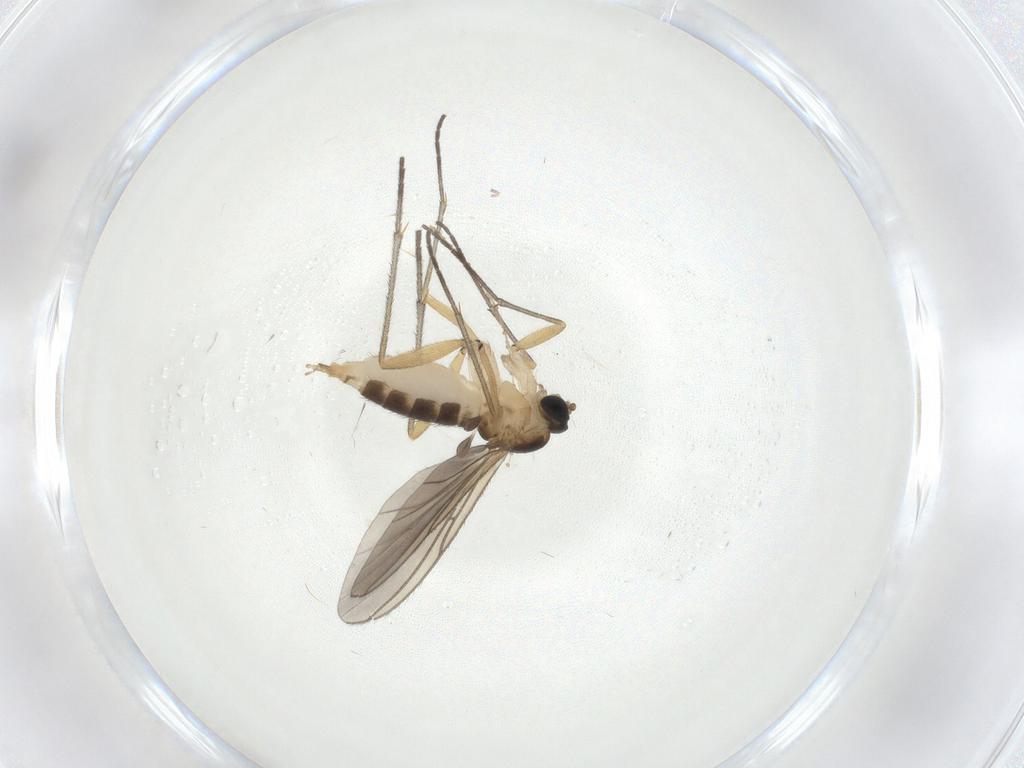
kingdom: Animalia
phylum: Arthropoda
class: Insecta
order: Diptera
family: Sciaridae
